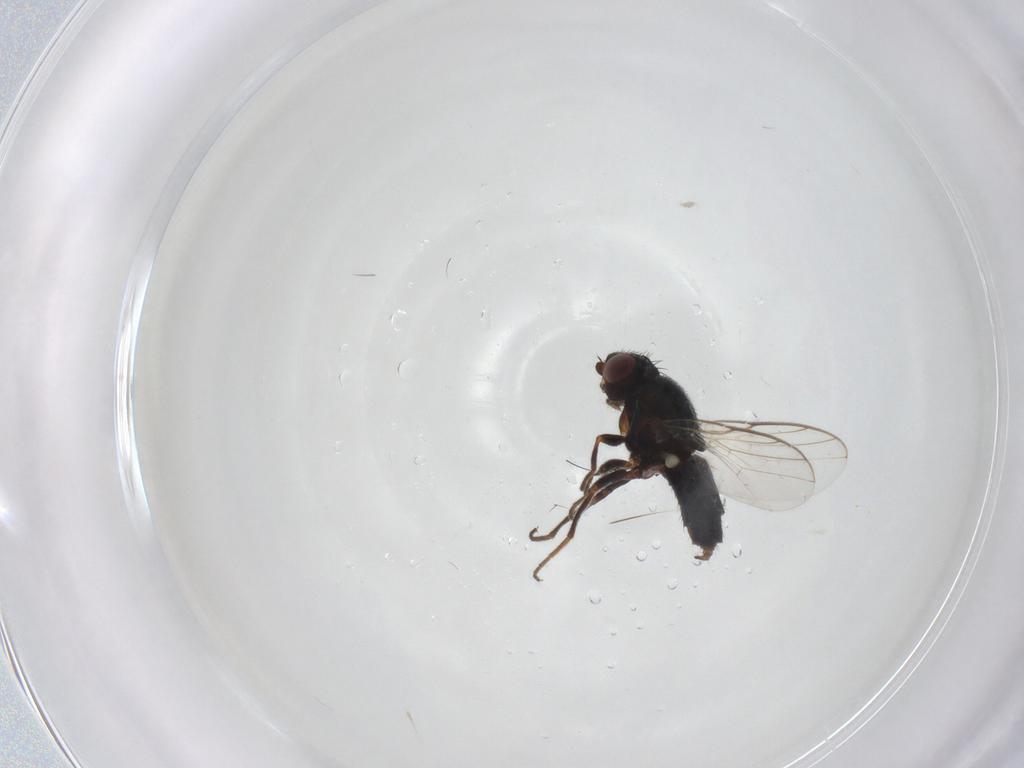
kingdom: Animalia
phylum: Arthropoda
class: Insecta
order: Diptera
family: Chloropidae
